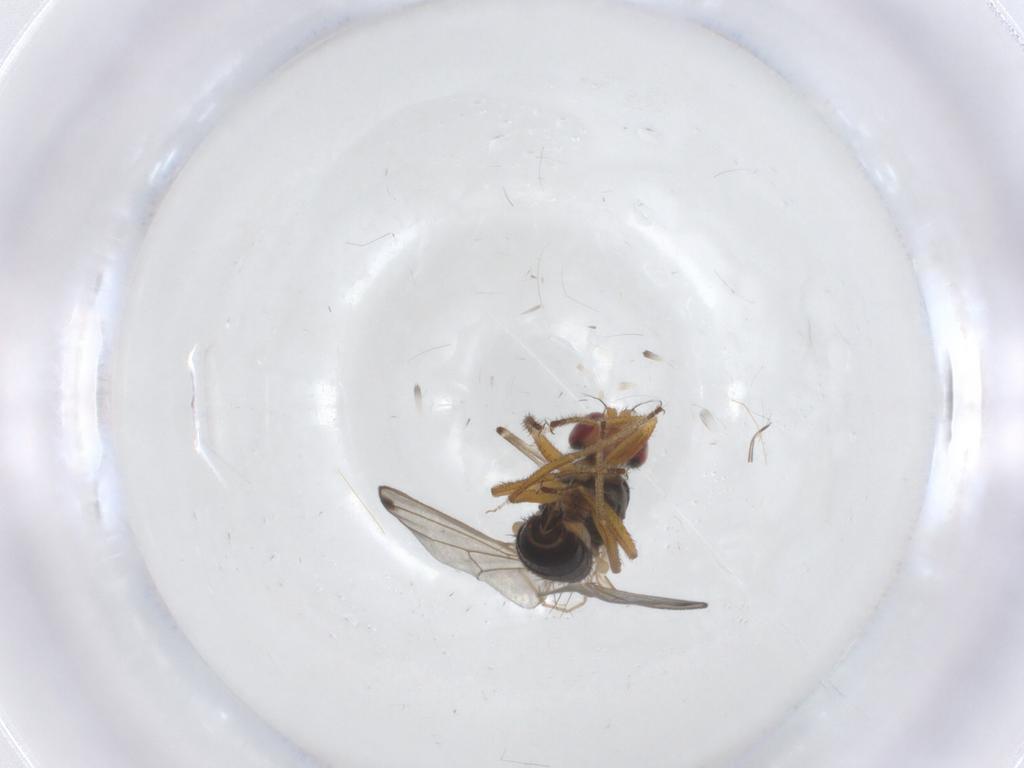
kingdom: Animalia
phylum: Arthropoda
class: Insecta
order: Diptera
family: Drosophilidae
